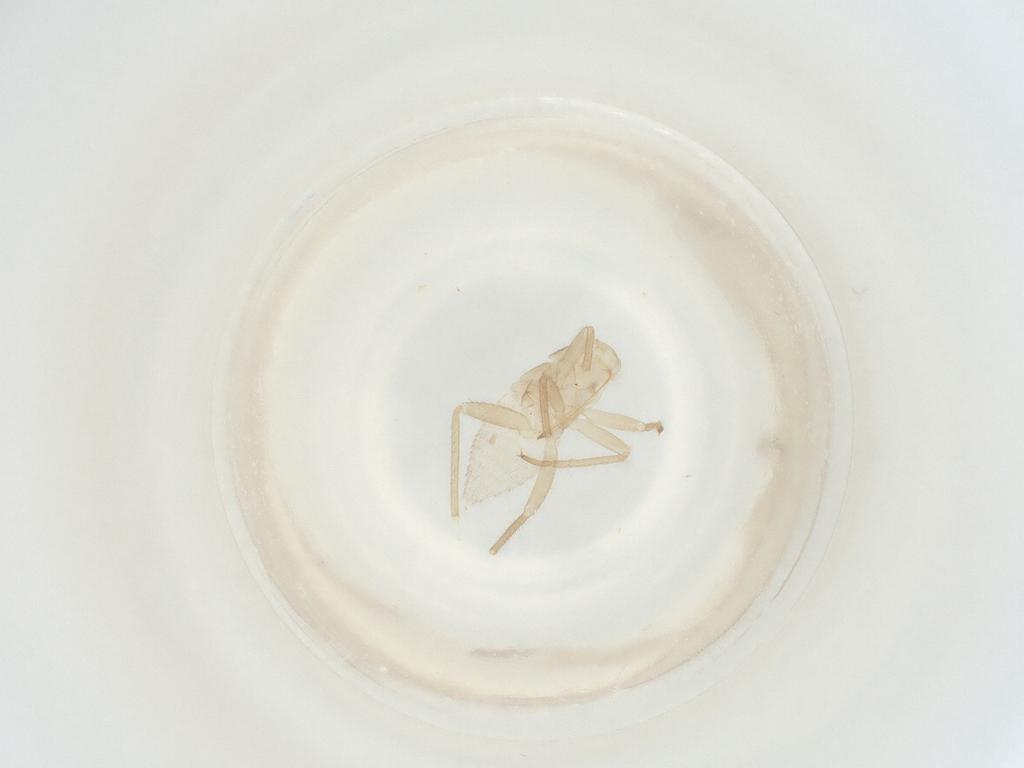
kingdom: Animalia
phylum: Arthropoda
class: Insecta
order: Hemiptera
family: Miridae
